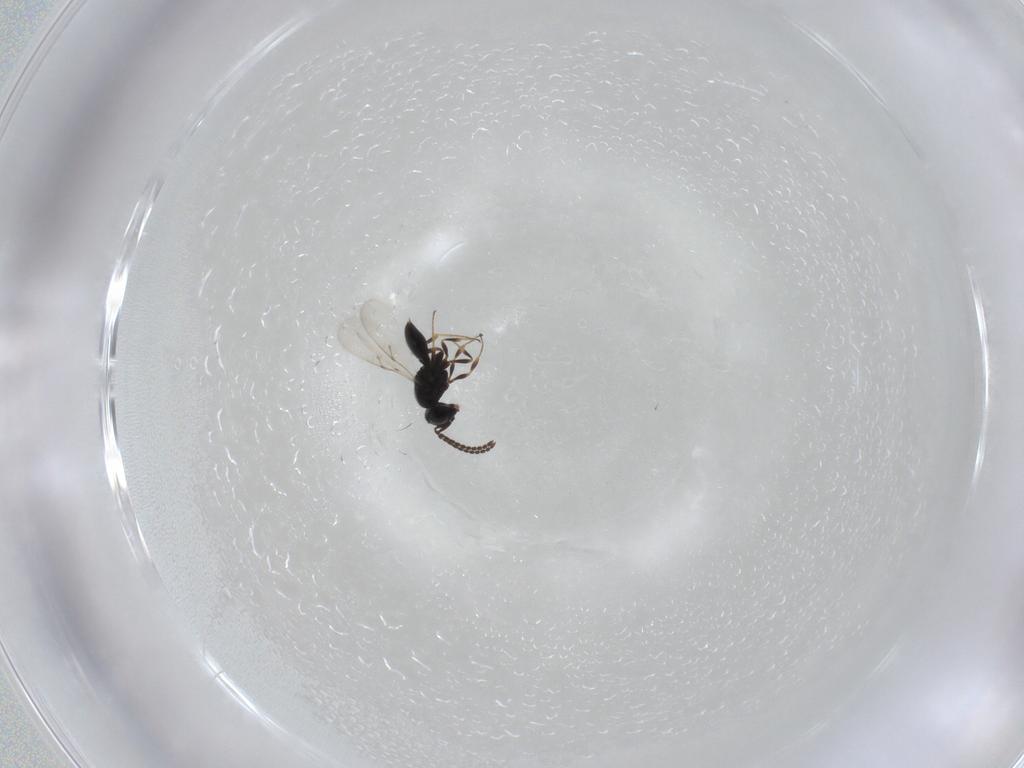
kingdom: Animalia
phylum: Arthropoda
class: Insecta
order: Hymenoptera
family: Scelionidae
